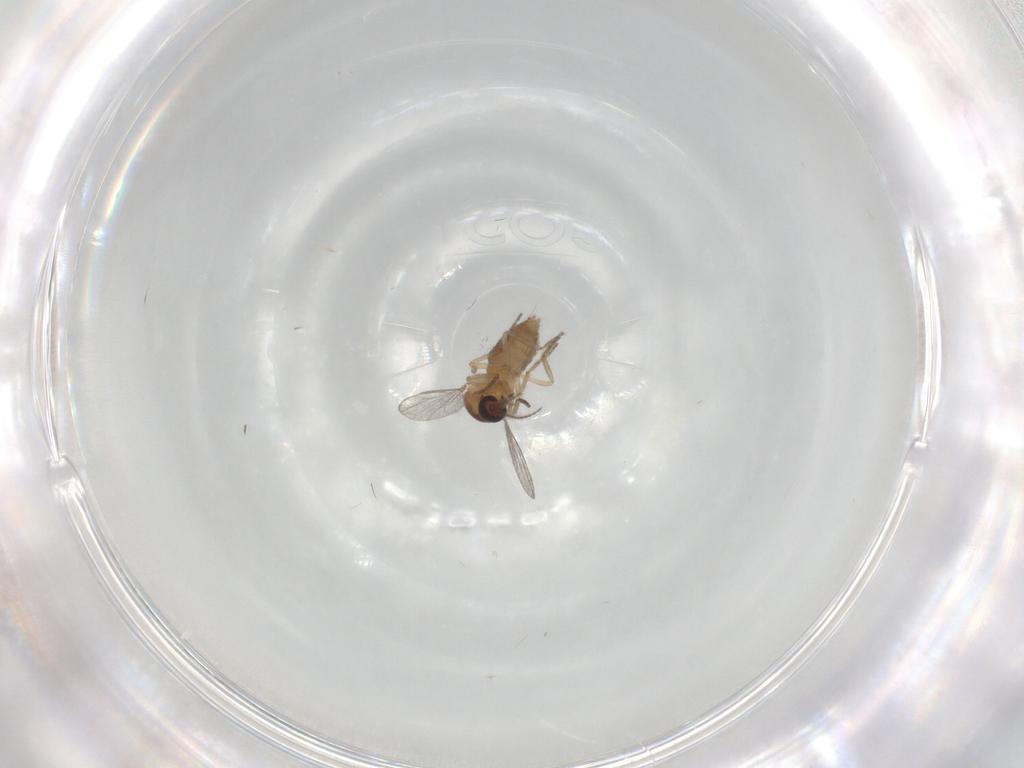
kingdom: Animalia
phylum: Arthropoda
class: Insecta
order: Diptera
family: Ceratopogonidae
